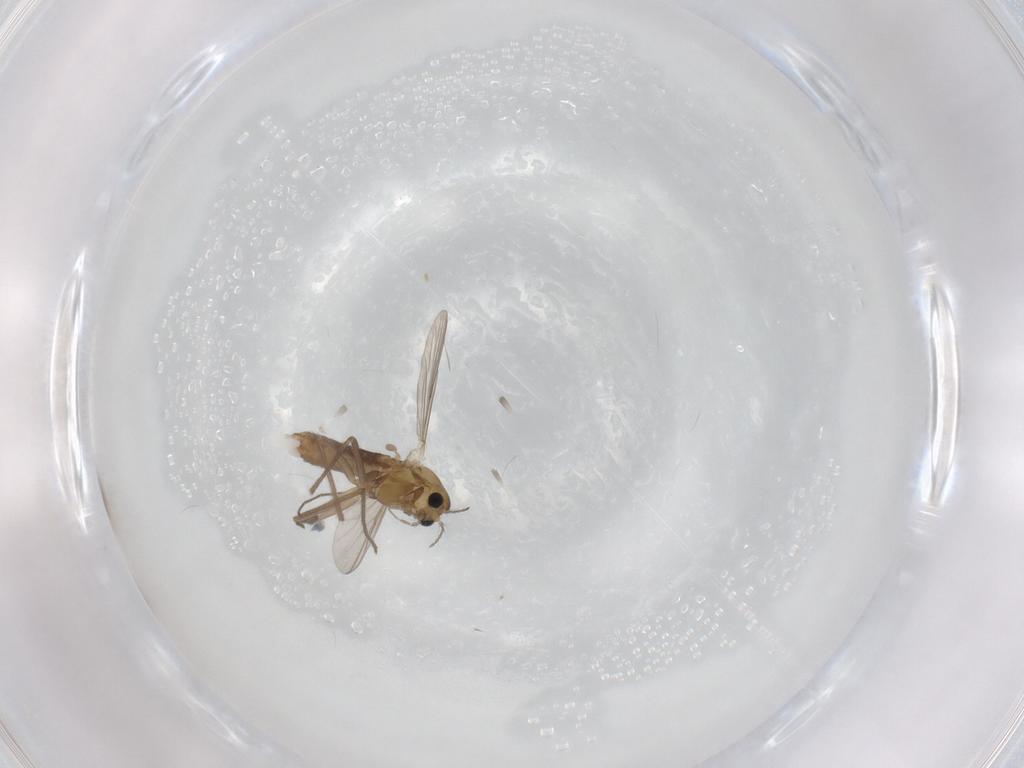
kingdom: Animalia
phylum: Arthropoda
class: Insecta
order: Diptera
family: Chironomidae
